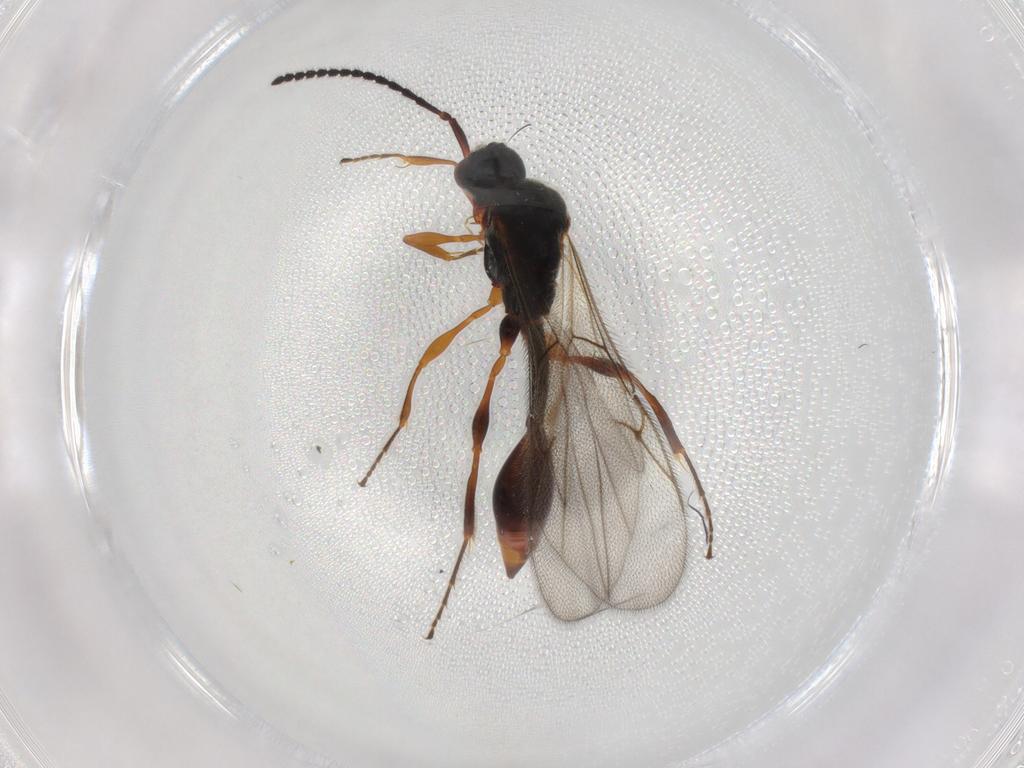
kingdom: Animalia
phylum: Arthropoda
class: Insecta
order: Hymenoptera
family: Diapriidae
